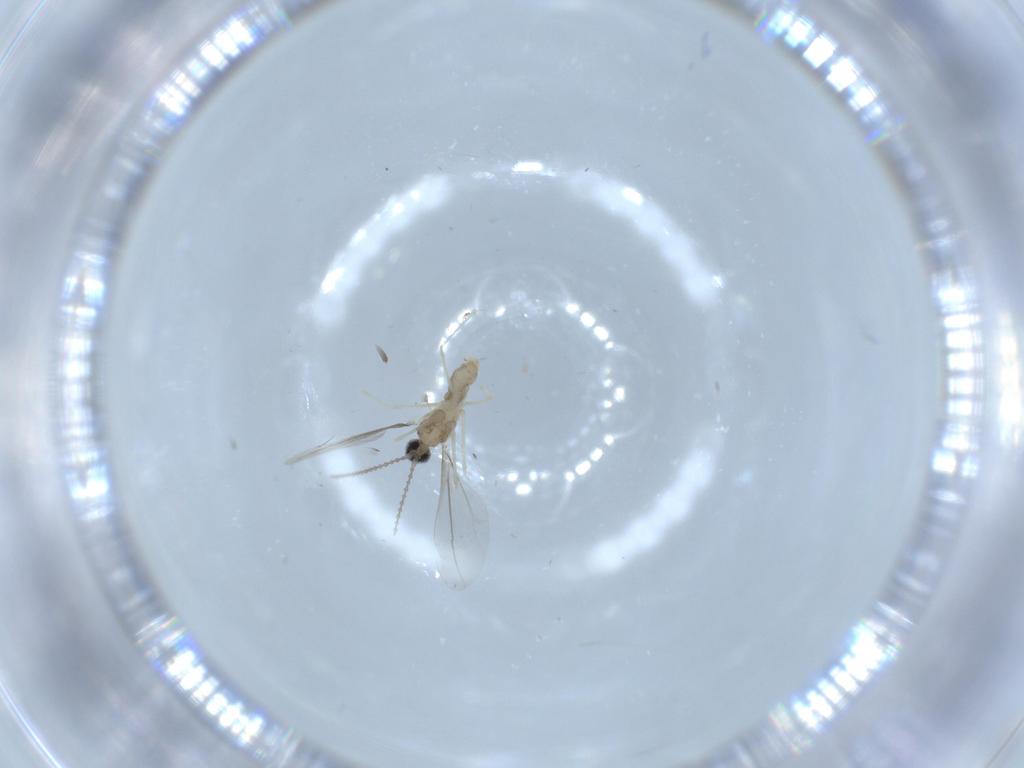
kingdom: Animalia
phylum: Arthropoda
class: Insecta
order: Diptera
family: Cecidomyiidae
